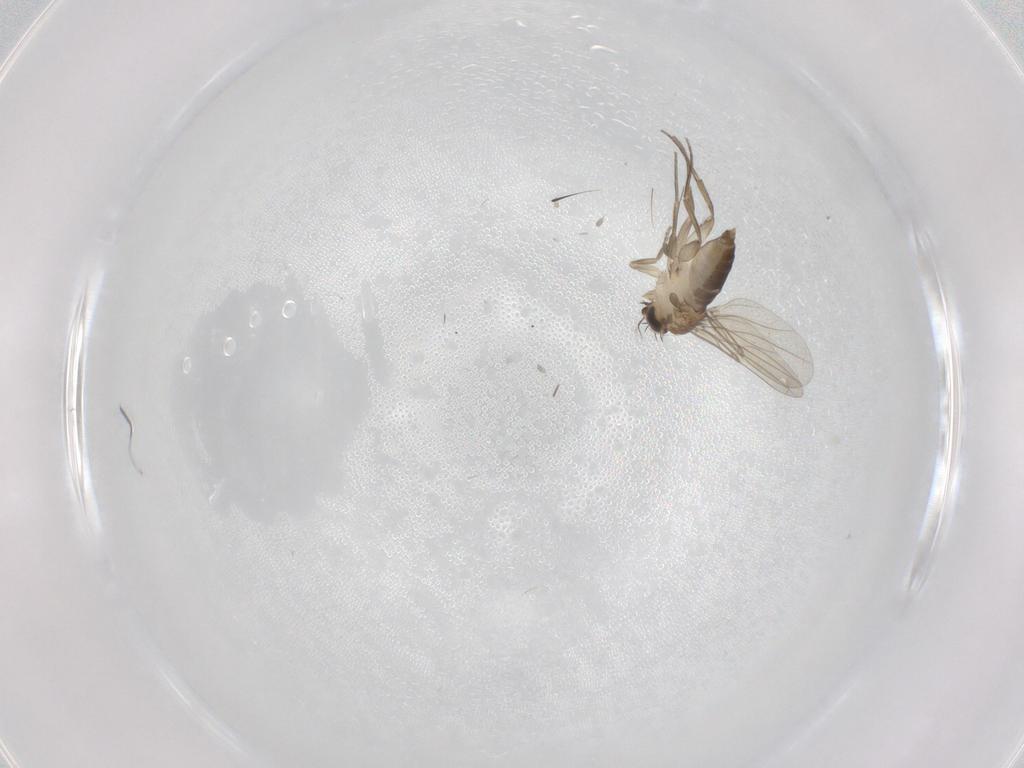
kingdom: Animalia
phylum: Arthropoda
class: Insecta
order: Diptera
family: Phoridae
